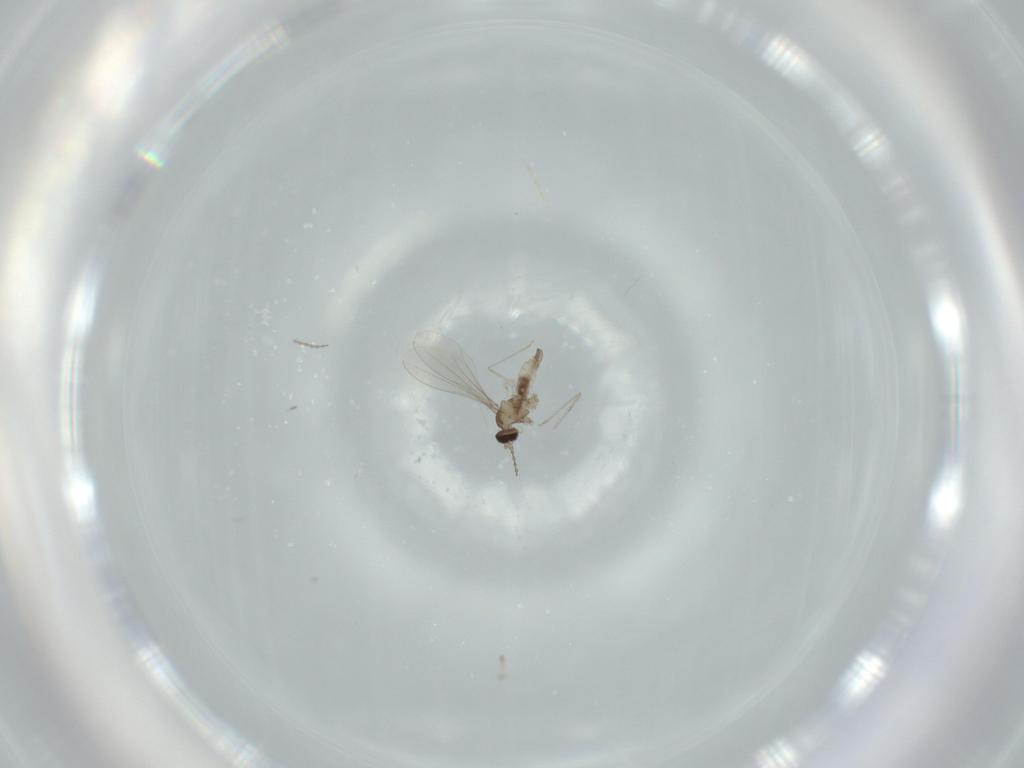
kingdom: Animalia
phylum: Arthropoda
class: Insecta
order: Diptera
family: Cecidomyiidae
